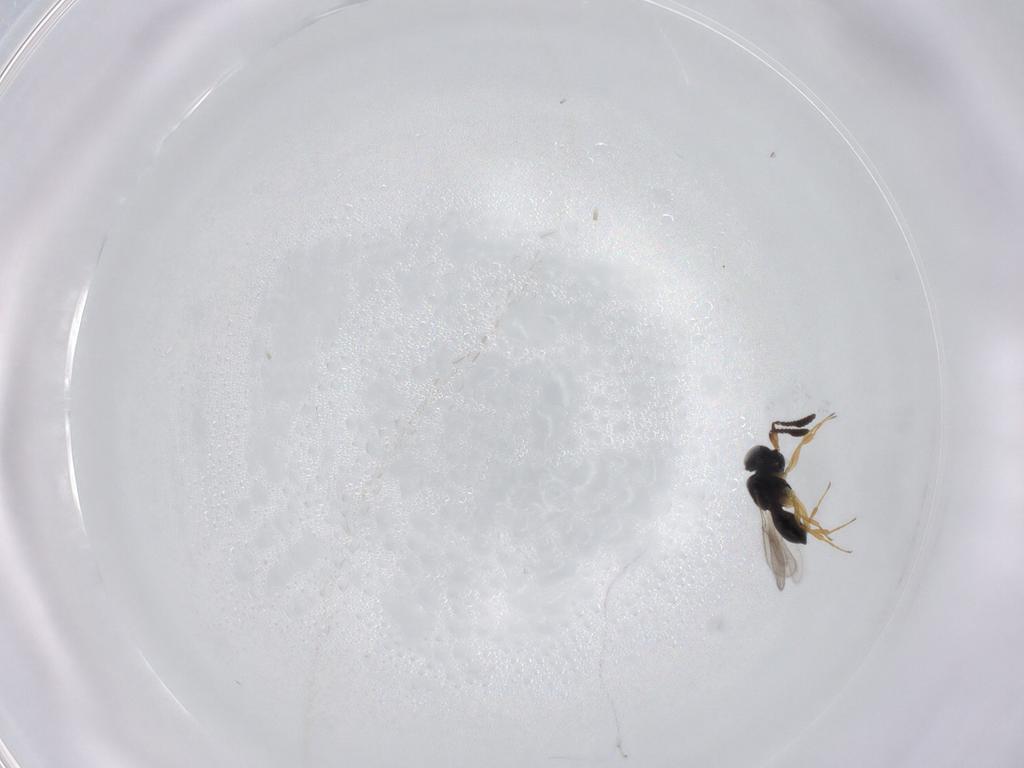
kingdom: Animalia
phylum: Arthropoda
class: Insecta
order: Hymenoptera
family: Scelionidae
